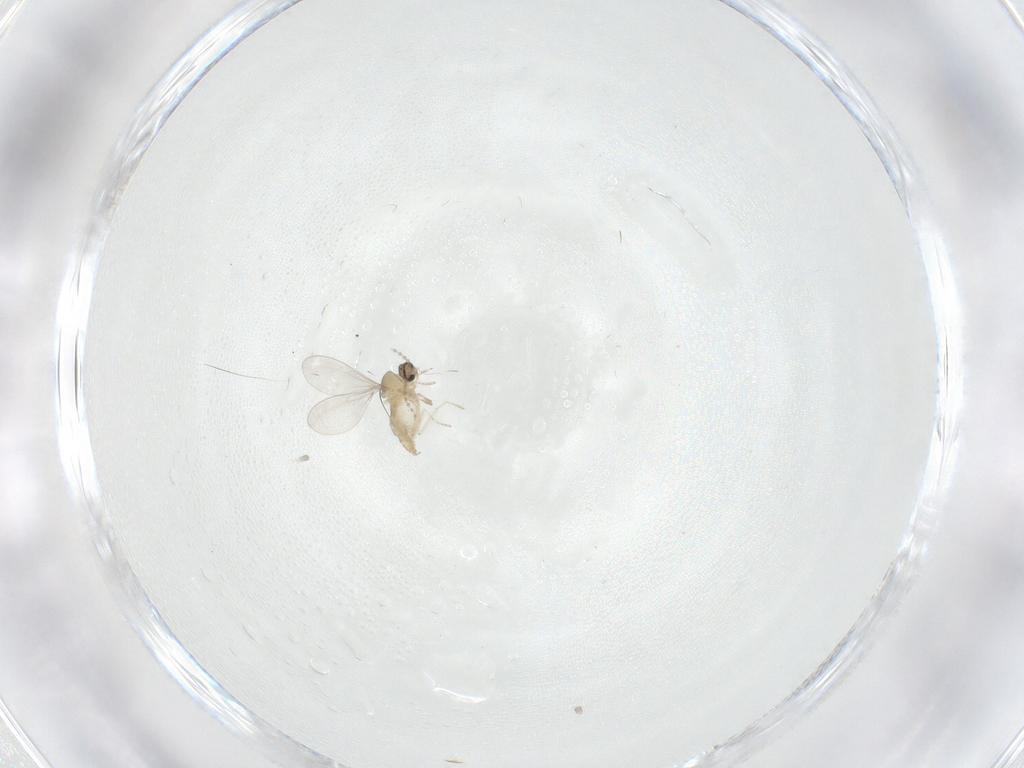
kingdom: Animalia
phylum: Arthropoda
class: Insecta
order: Diptera
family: Cecidomyiidae
